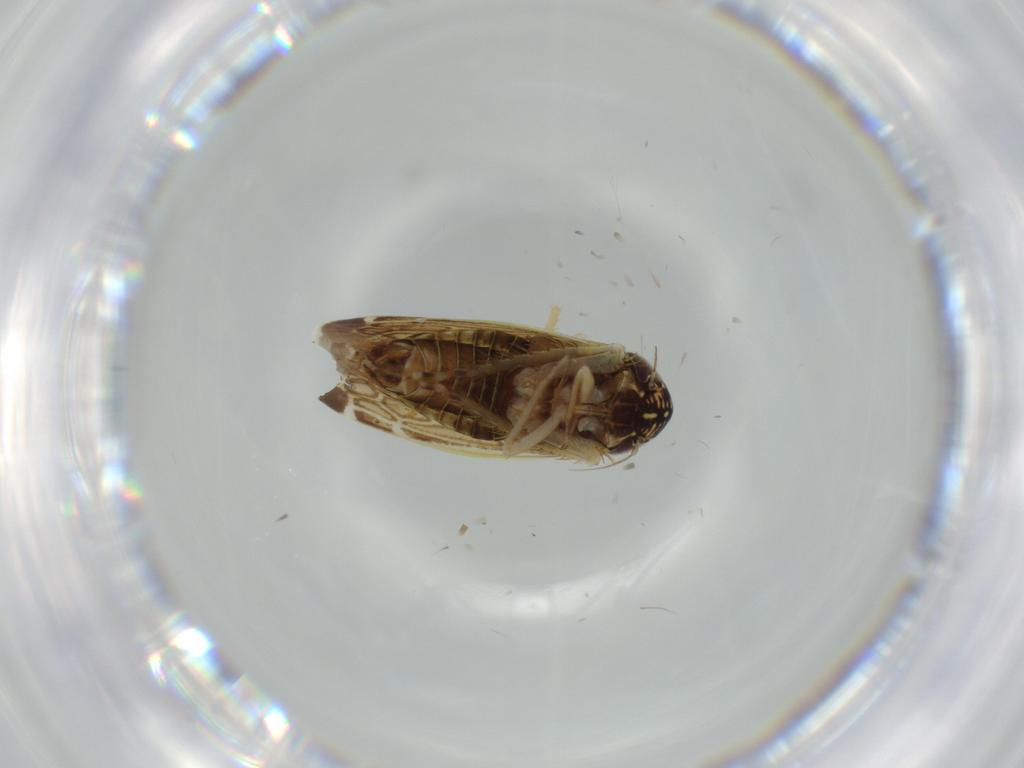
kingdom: Animalia
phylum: Arthropoda
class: Insecta
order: Hemiptera
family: Cicadellidae
